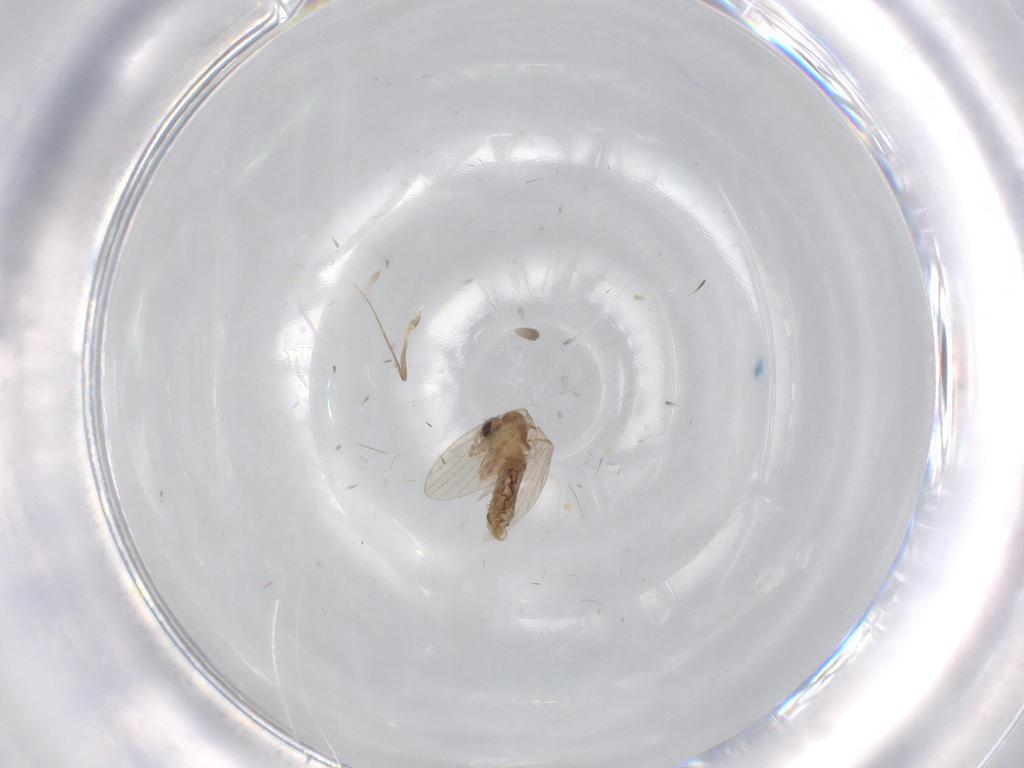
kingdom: Animalia
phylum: Arthropoda
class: Insecta
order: Diptera
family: Chironomidae
